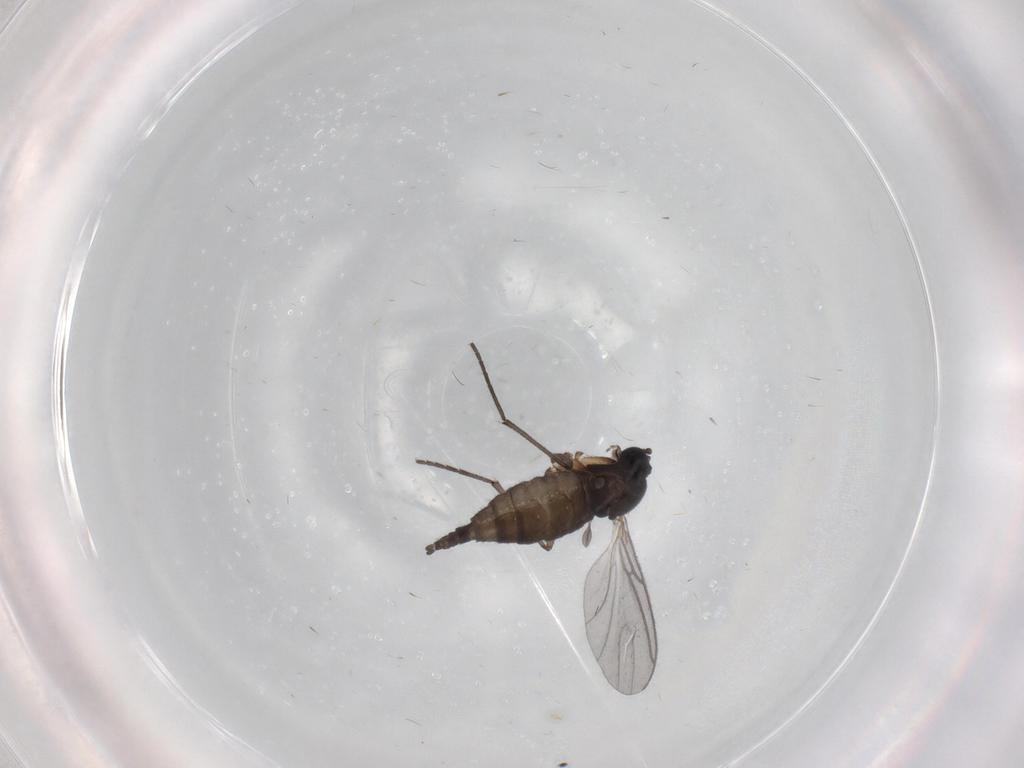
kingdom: Animalia
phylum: Arthropoda
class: Insecta
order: Diptera
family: Sciaridae
